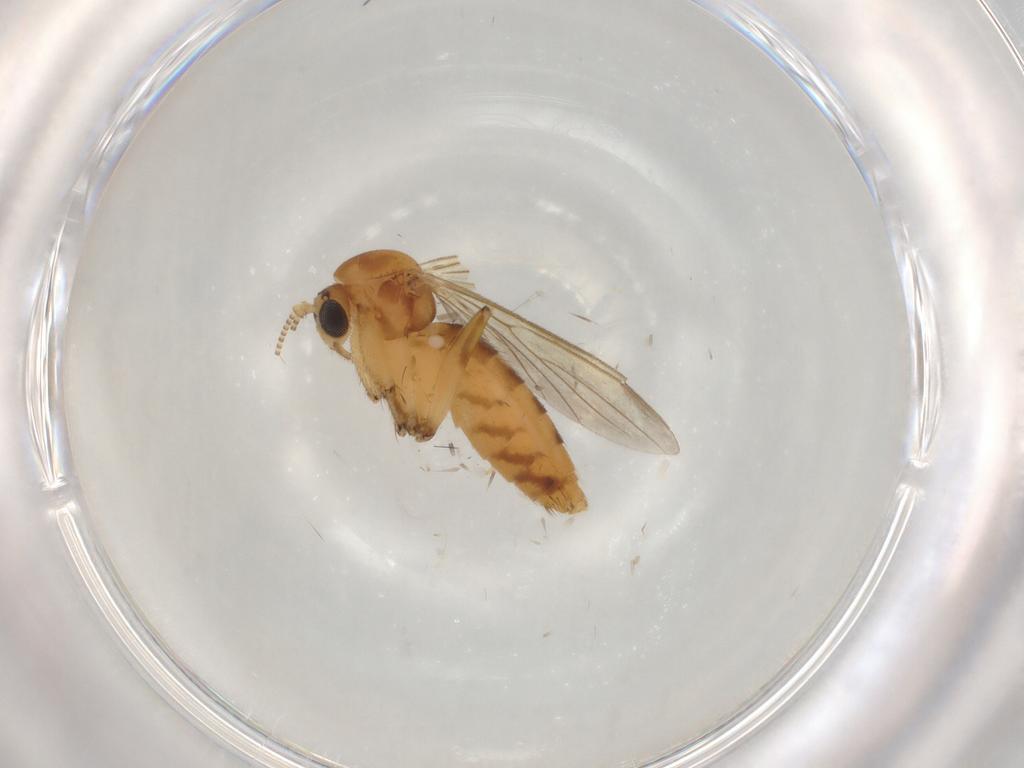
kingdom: Animalia
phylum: Arthropoda
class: Insecta
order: Diptera
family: Mycetophilidae
